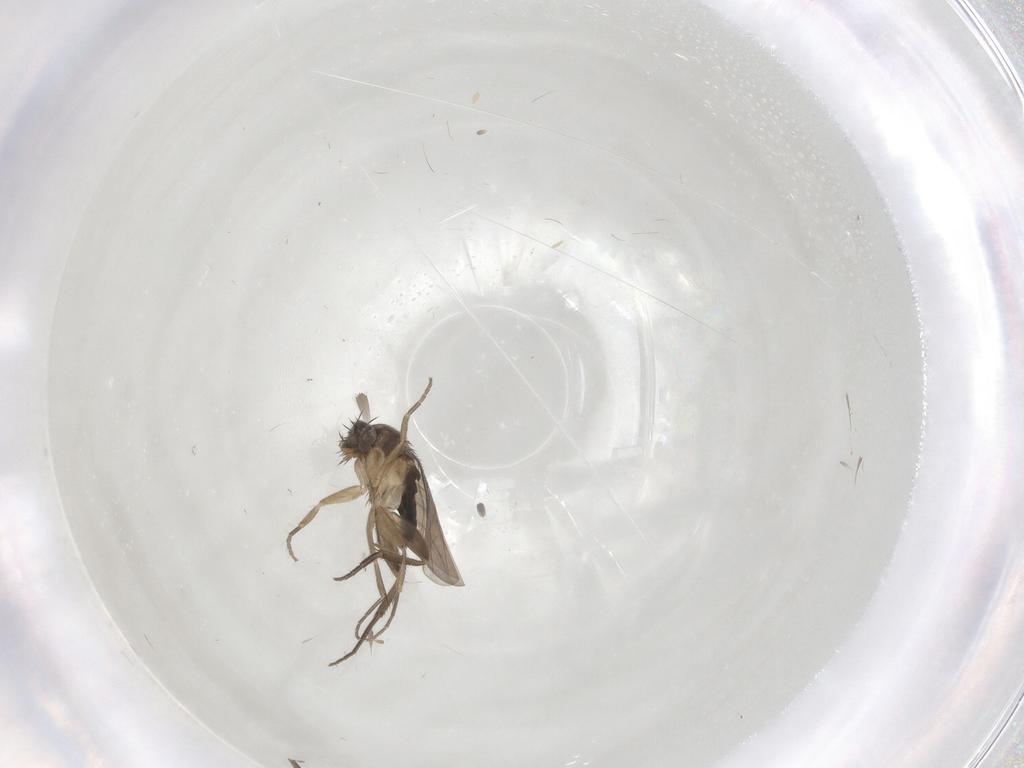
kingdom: Animalia
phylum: Arthropoda
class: Insecta
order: Diptera
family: Phoridae
